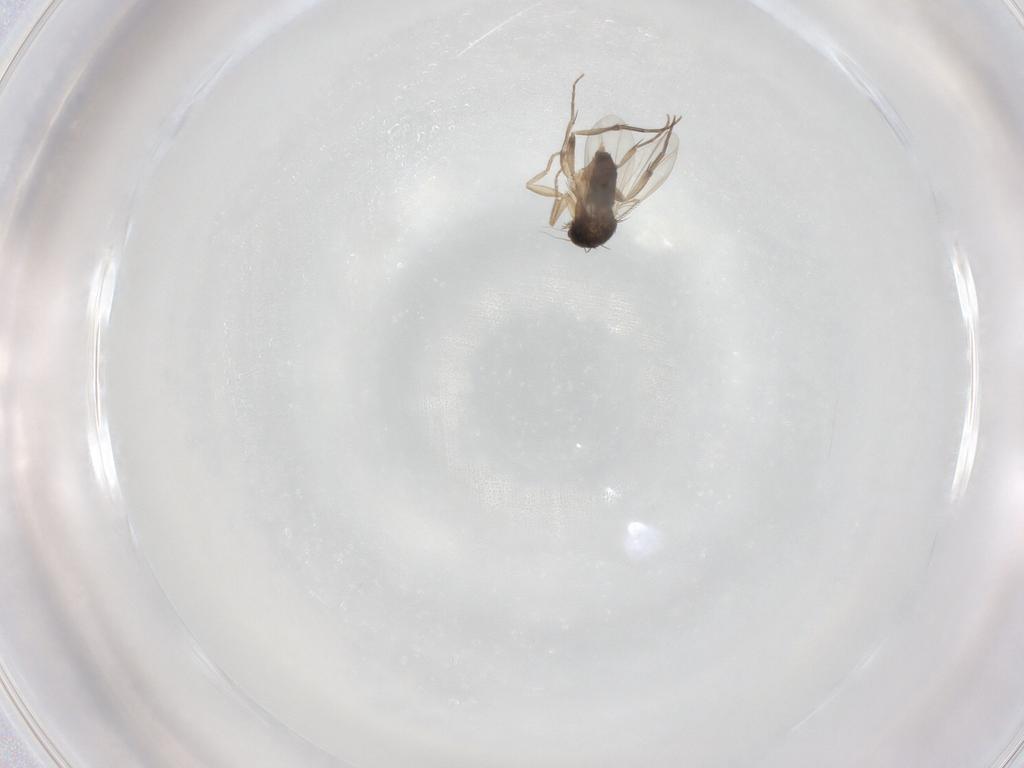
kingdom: Animalia
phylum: Arthropoda
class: Insecta
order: Diptera
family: Phoridae
